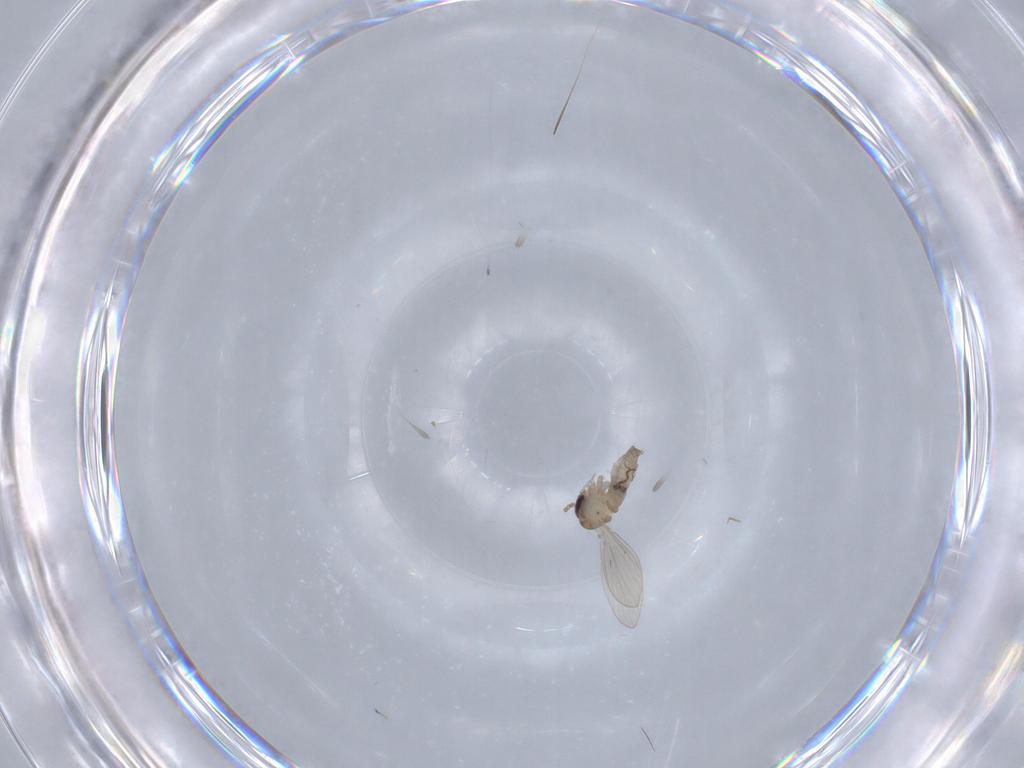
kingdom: Animalia
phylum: Arthropoda
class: Insecta
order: Diptera
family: Psychodidae
